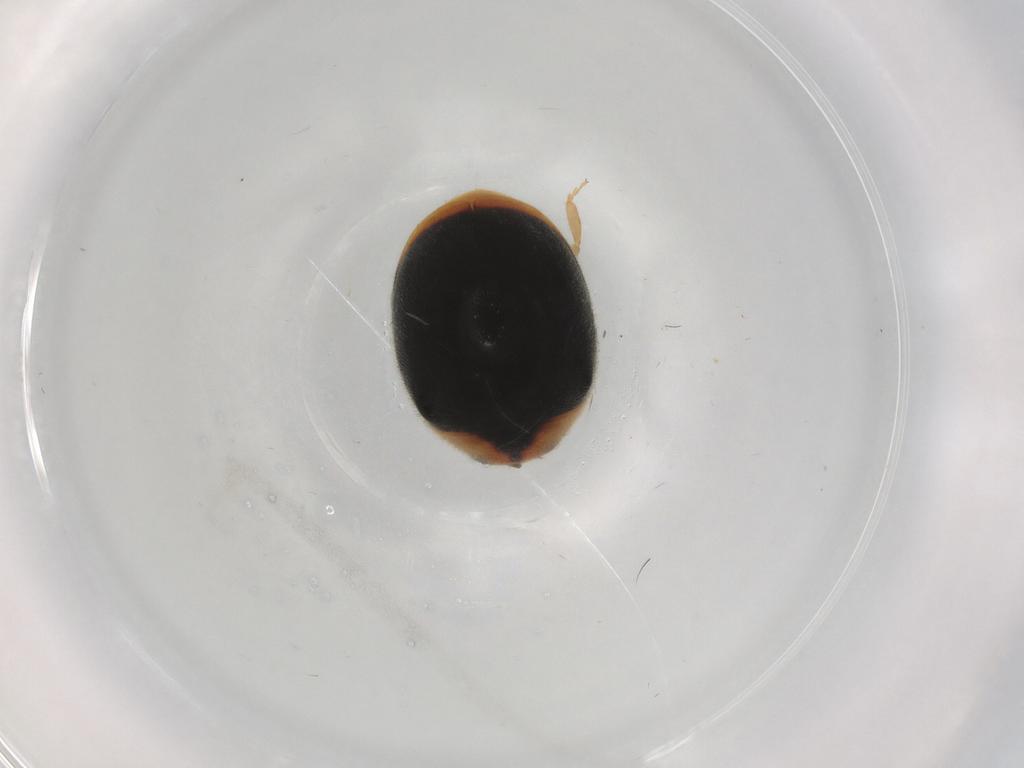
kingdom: Animalia
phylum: Arthropoda
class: Insecta
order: Coleoptera
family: Coccinellidae
